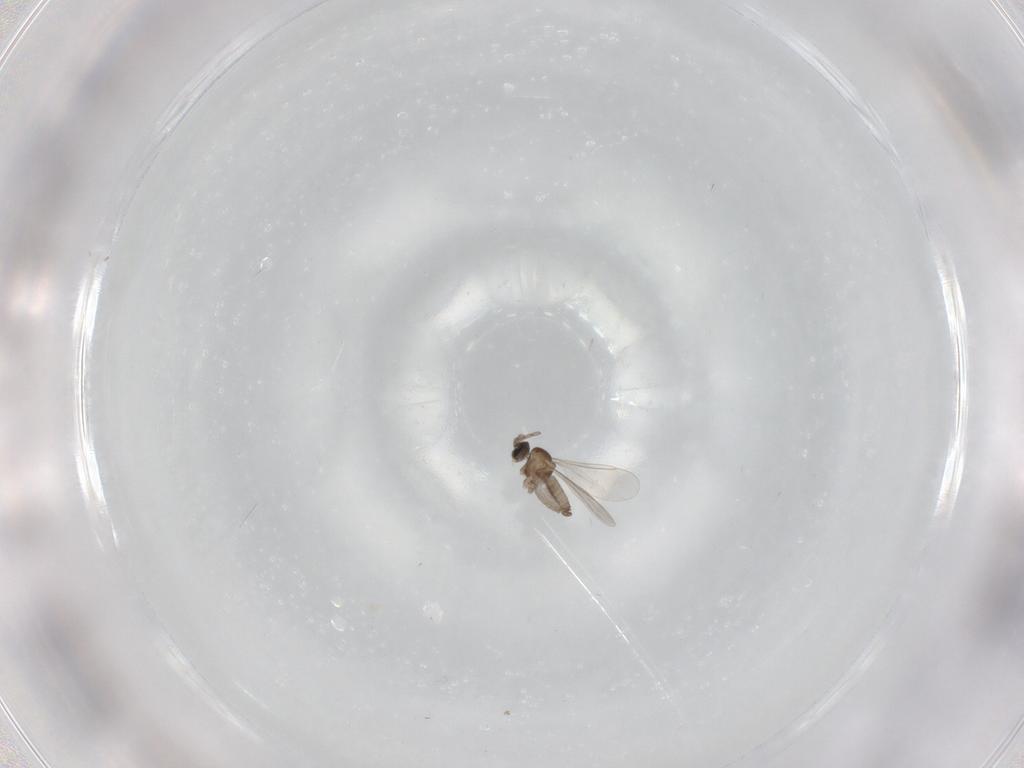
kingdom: Animalia
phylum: Arthropoda
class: Insecta
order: Diptera
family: Cecidomyiidae
